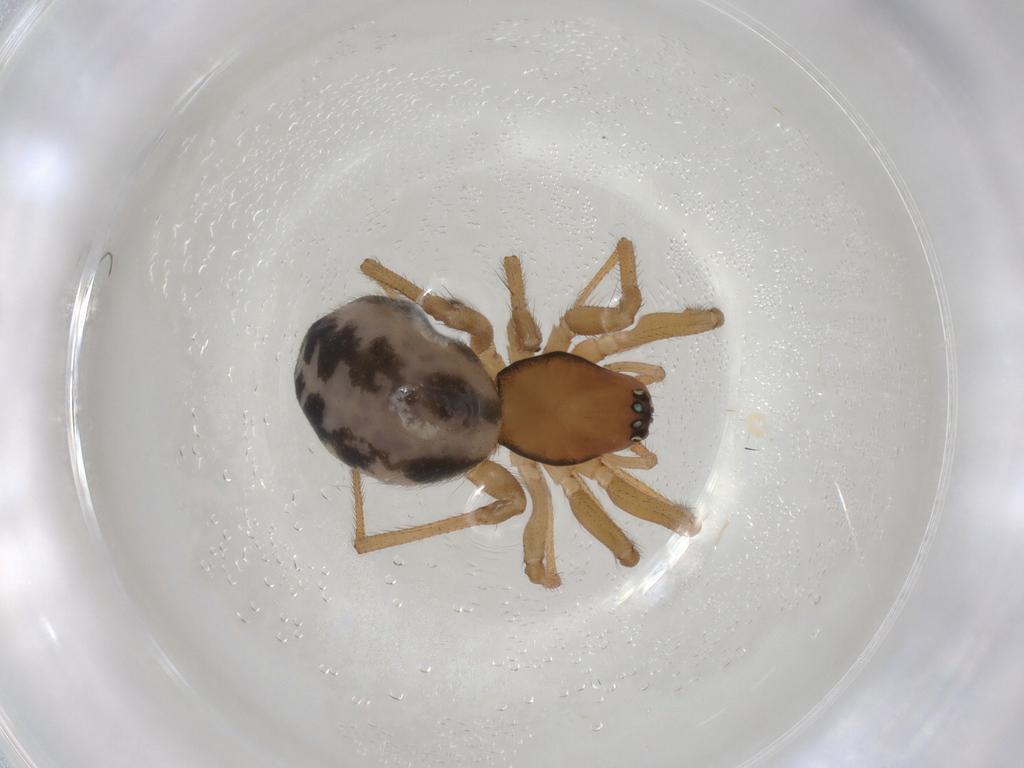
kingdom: Animalia
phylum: Arthropoda
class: Arachnida
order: Araneae
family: Linyphiidae
